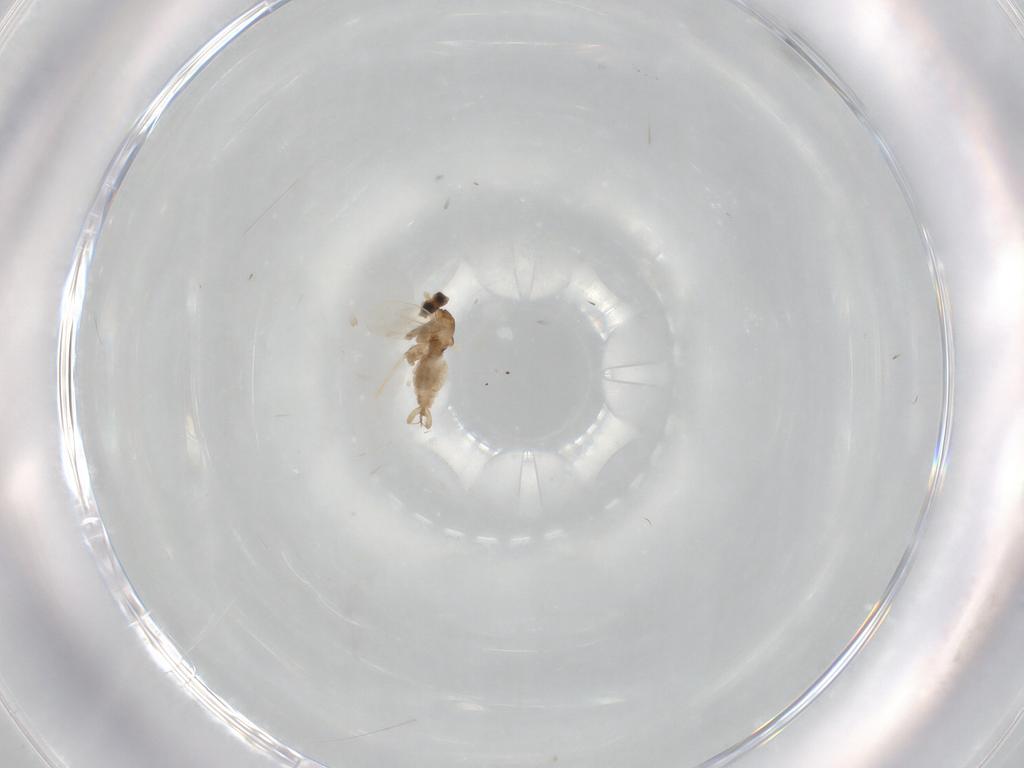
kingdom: Animalia
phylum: Arthropoda
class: Insecta
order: Diptera
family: Cecidomyiidae
